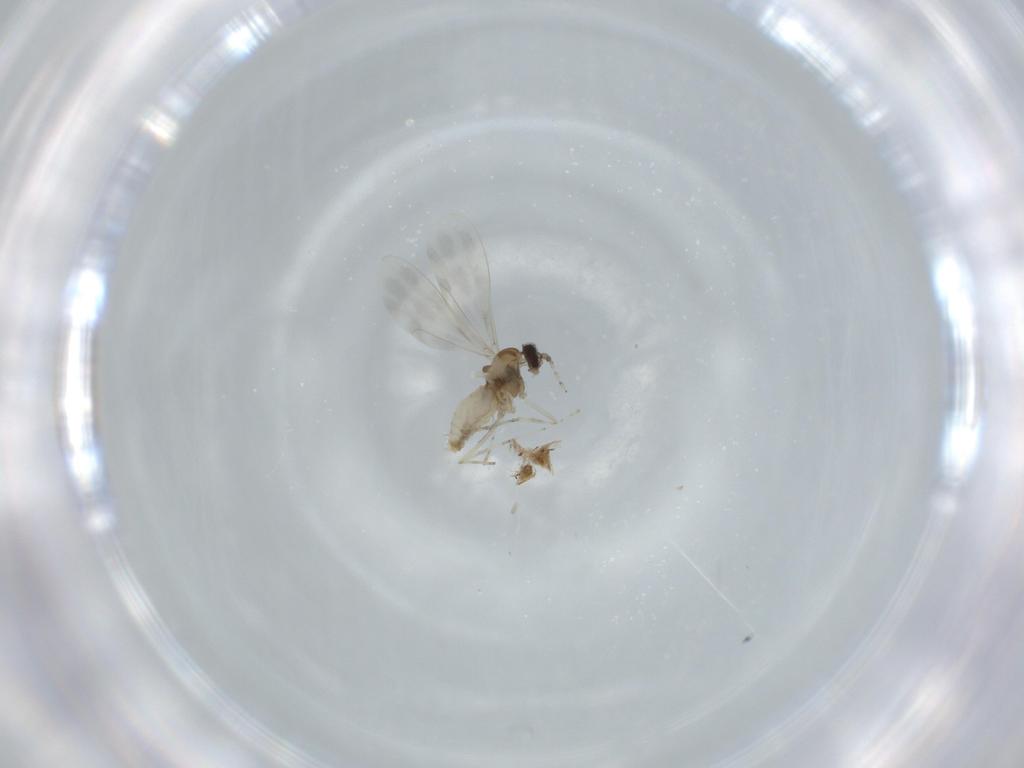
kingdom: Animalia
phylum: Arthropoda
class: Insecta
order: Diptera
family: Cecidomyiidae
